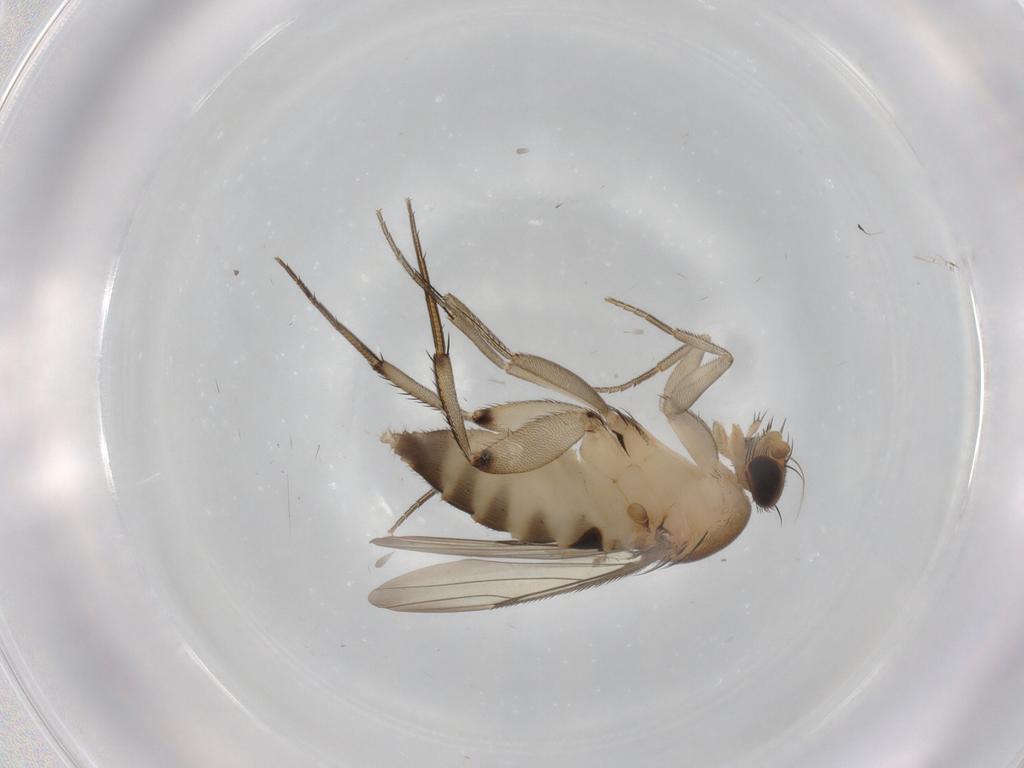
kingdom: Animalia
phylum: Arthropoda
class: Insecta
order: Diptera
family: Phoridae
